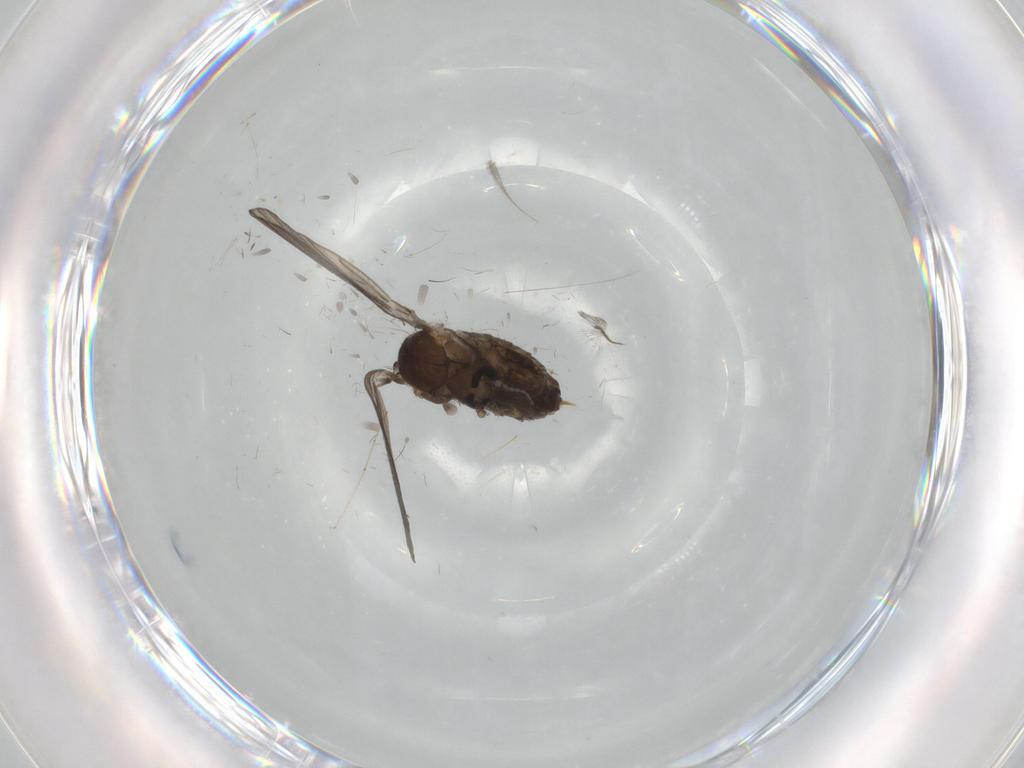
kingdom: Animalia
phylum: Arthropoda
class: Insecta
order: Diptera
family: Psychodidae
